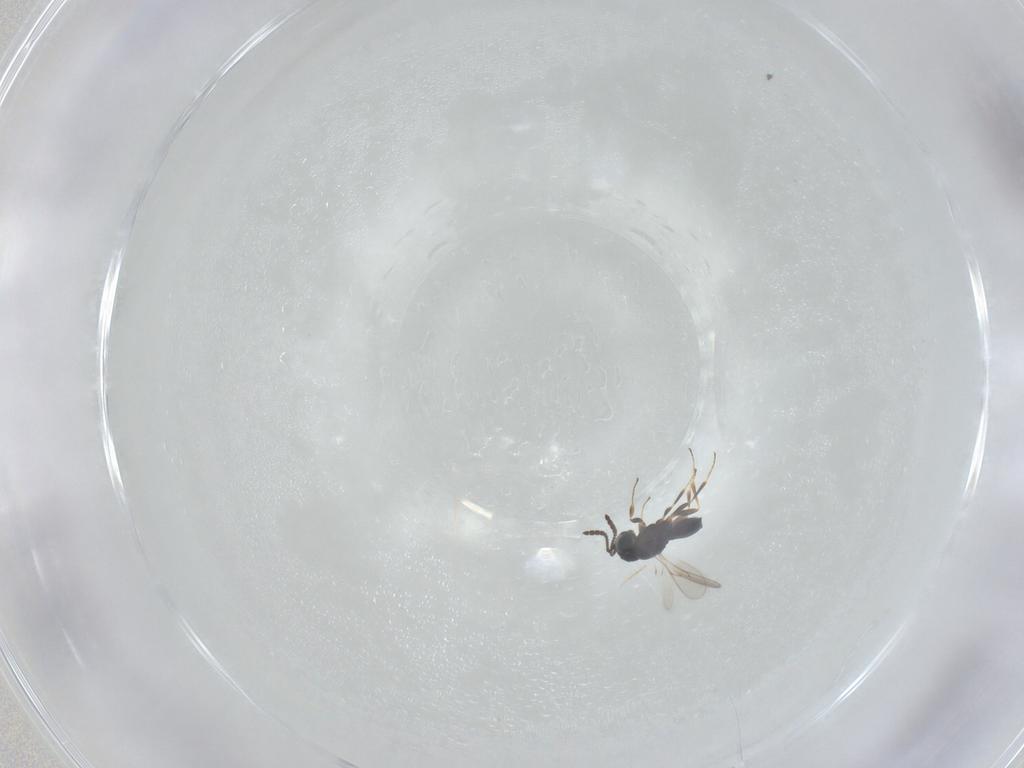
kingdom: Animalia
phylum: Arthropoda
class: Insecta
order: Hymenoptera
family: Scelionidae
